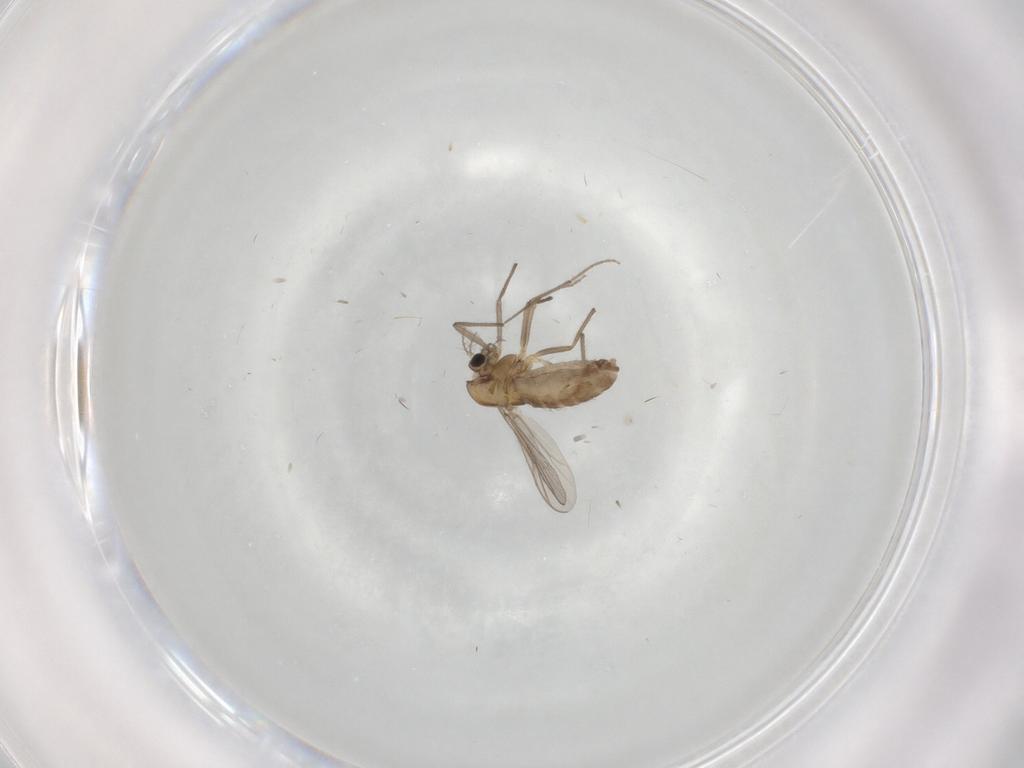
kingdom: Animalia
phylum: Arthropoda
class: Insecta
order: Diptera
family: Chironomidae
